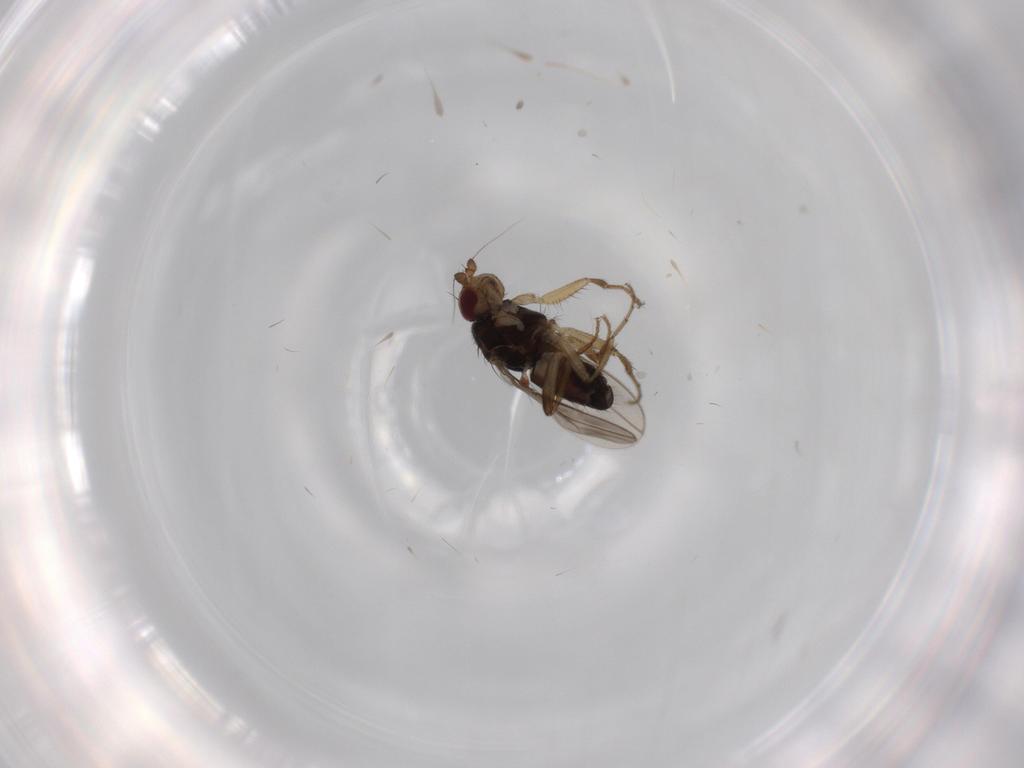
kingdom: Animalia
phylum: Arthropoda
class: Insecta
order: Diptera
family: Sphaeroceridae
